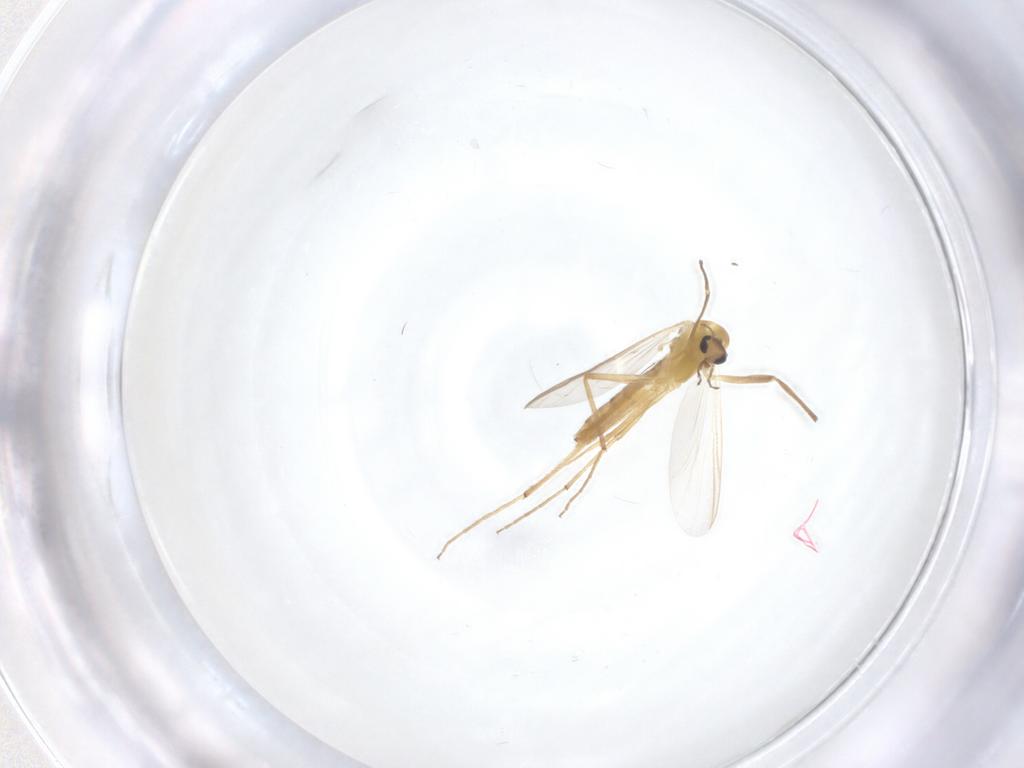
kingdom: Animalia
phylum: Arthropoda
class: Insecta
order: Diptera
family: Chironomidae
